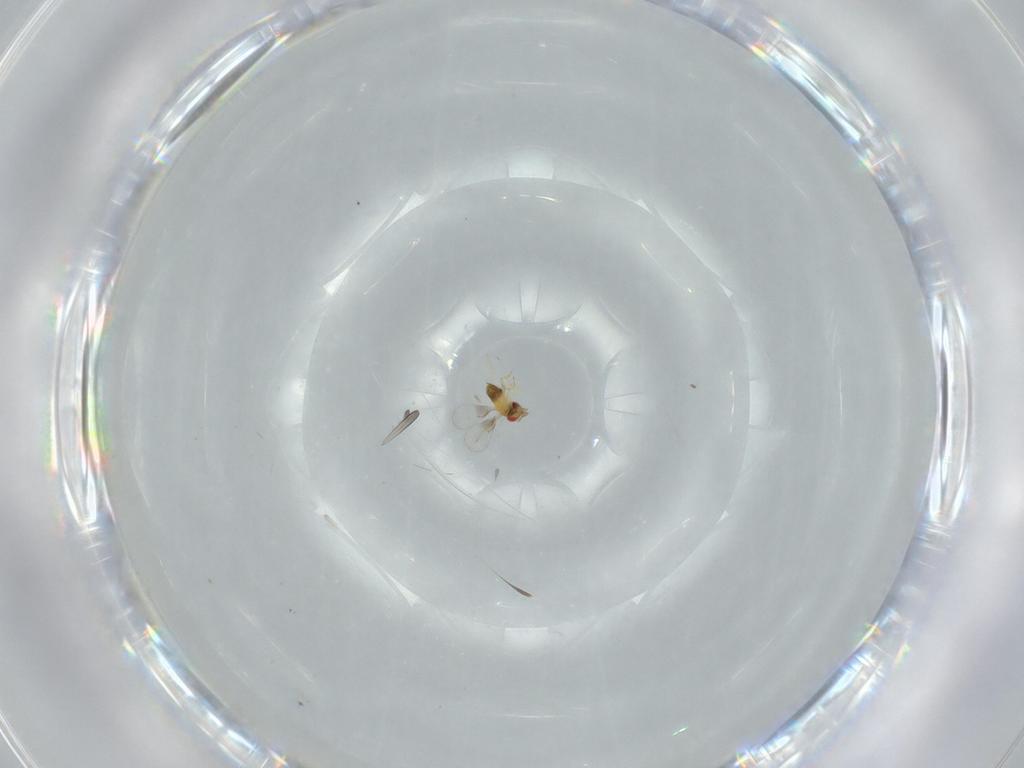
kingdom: Animalia
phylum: Arthropoda
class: Insecta
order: Hymenoptera
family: Trichogrammatidae
